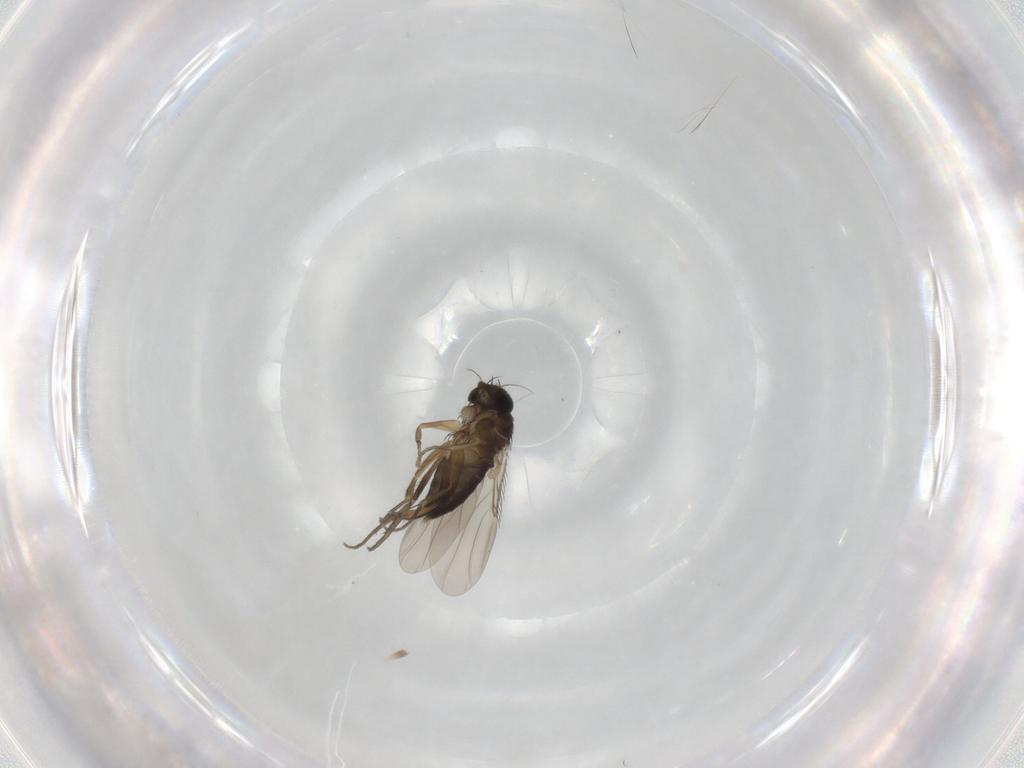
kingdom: Animalia
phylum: Arthropoda
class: Insecta
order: Diptera
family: Phoridae
